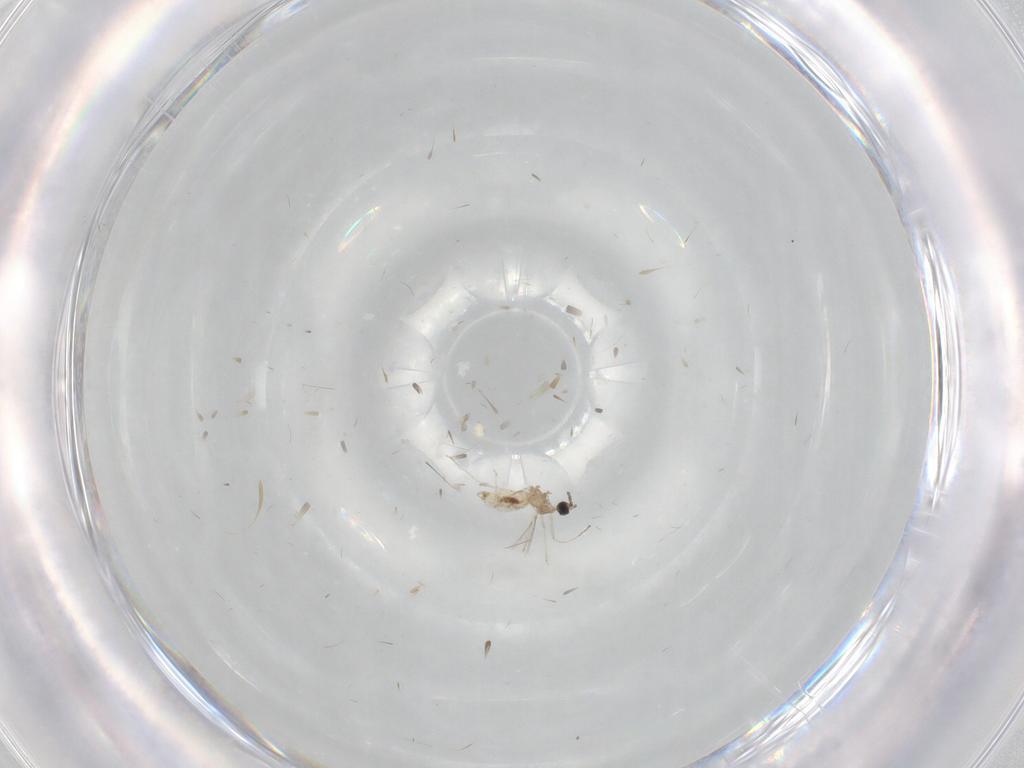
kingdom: Animalia
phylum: Arthropoda
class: Insecta
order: Diptera
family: Cecidomyiidae
